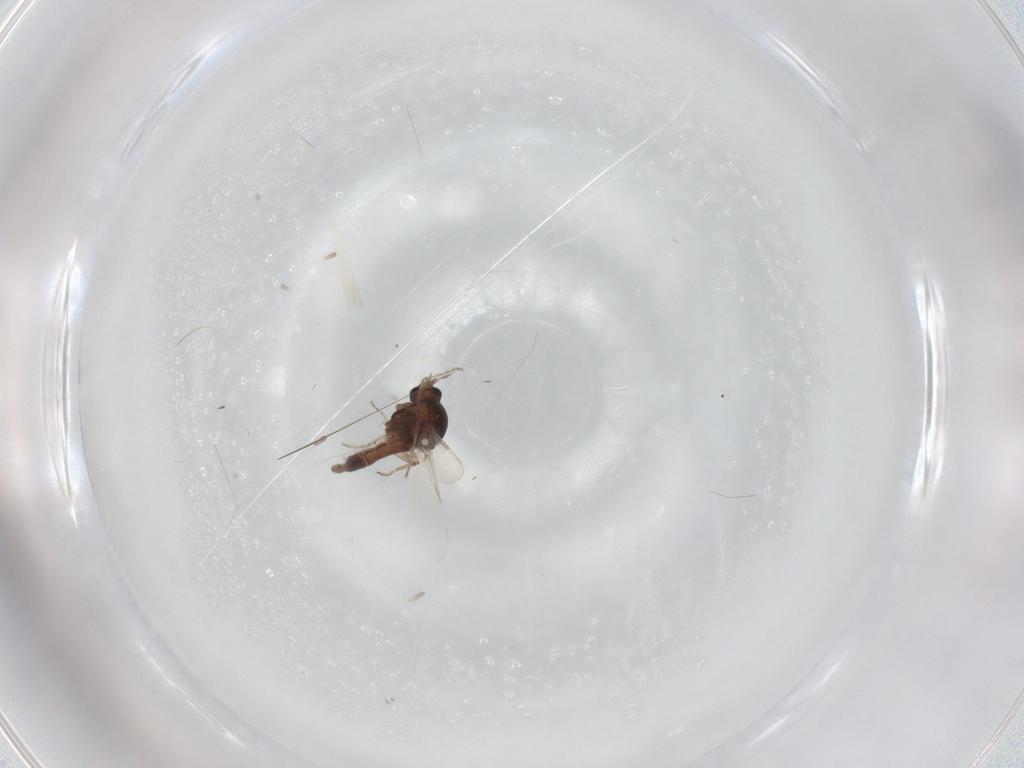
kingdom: Animalia
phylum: Arthropoda
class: Insecta
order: Diptera
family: Ceratopogonidae
